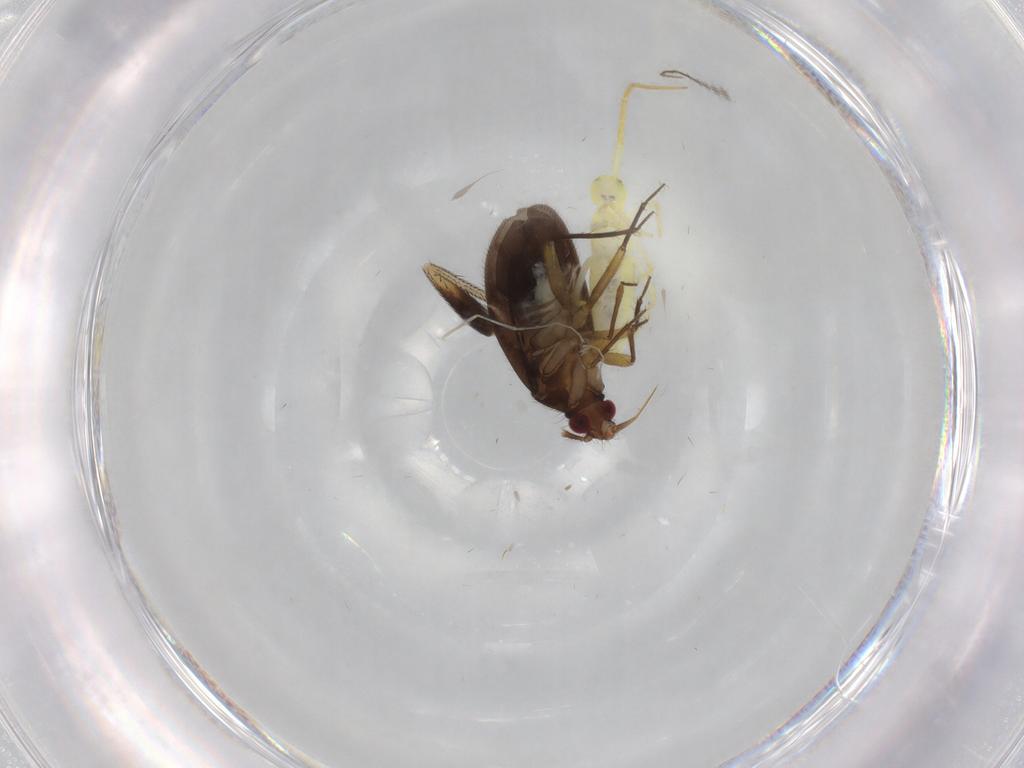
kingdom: Animalia
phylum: Arthropoda
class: Insecta
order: Hemiptera
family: Ceratocombidae
